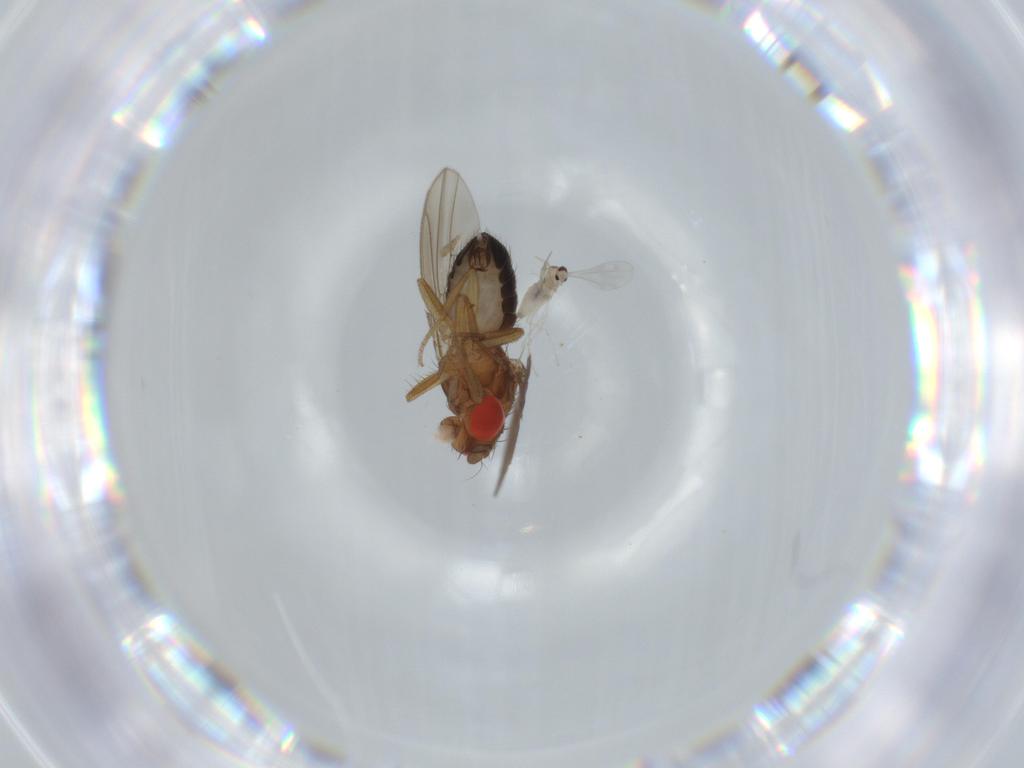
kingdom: Animalia
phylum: Arthropoda
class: Insecta
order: Diptera
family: Drosophilidae
